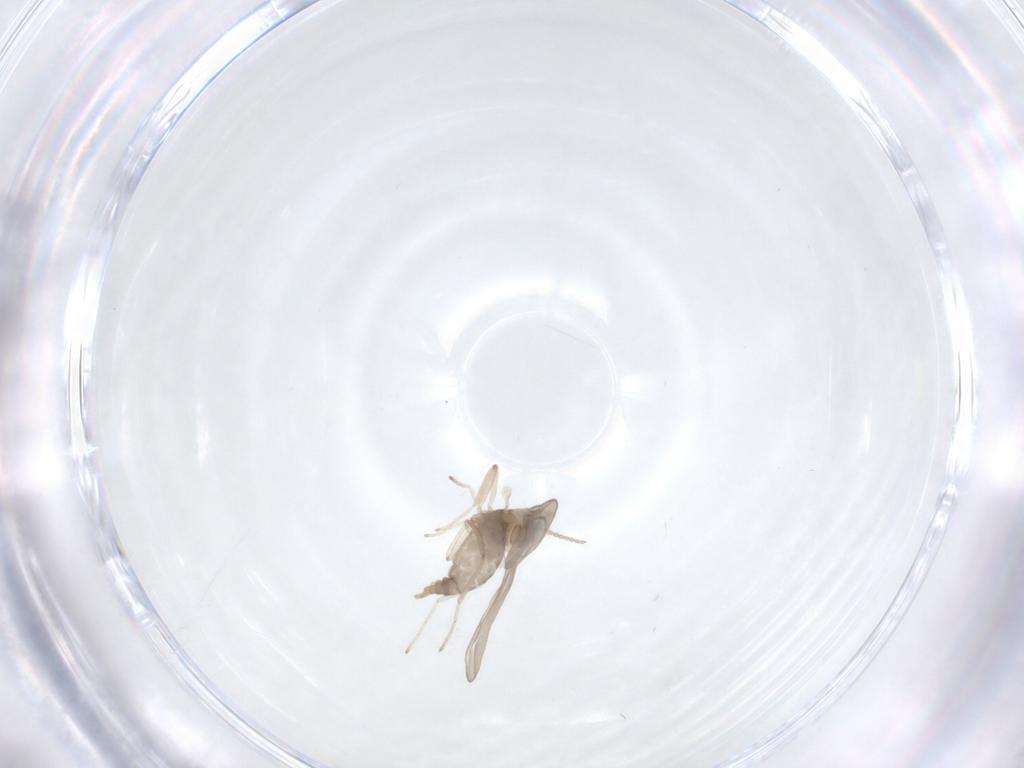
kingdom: Animalia
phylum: Arthropoda
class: Insecta
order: Diptera
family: Cecidomyiidae
